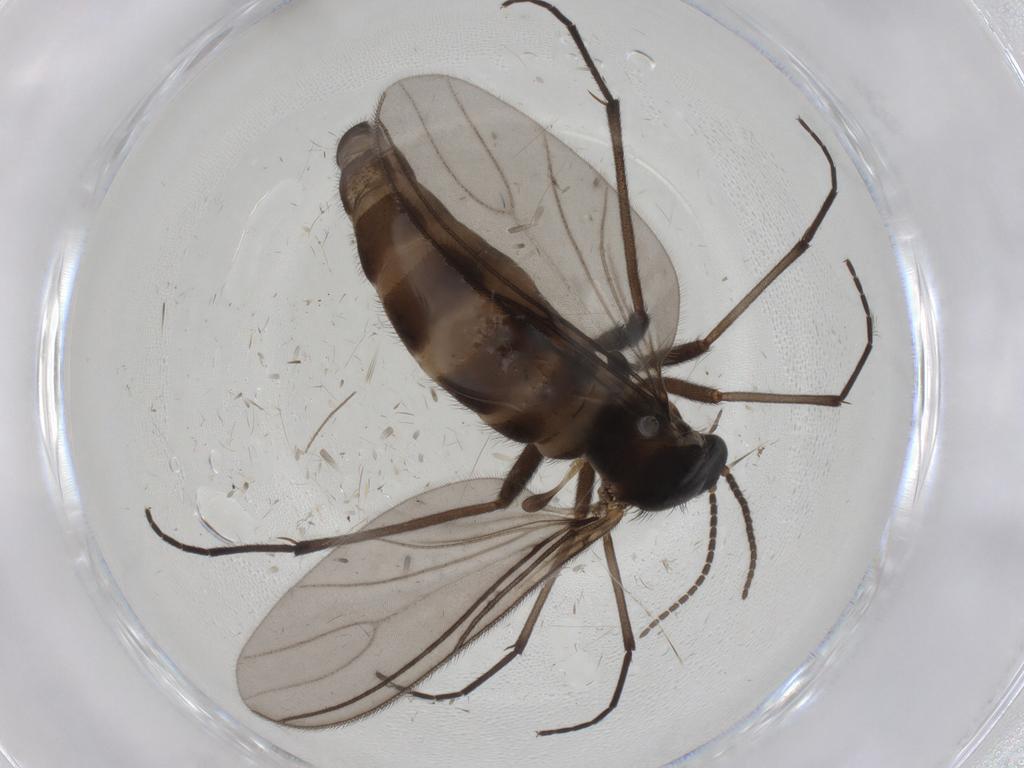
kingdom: Animalia
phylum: Arthropoda
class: Insecta
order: Diptera
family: Sciaridae
